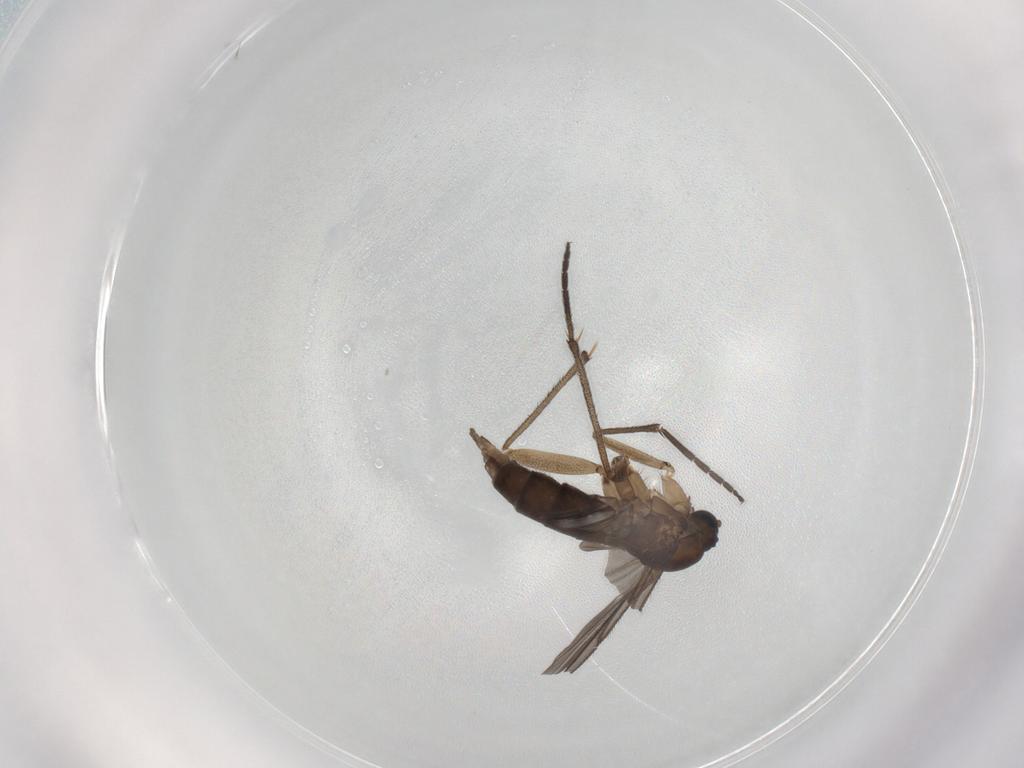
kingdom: Animalia
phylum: Arthropoda
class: Insecta
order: Diptera
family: Sciaridae
